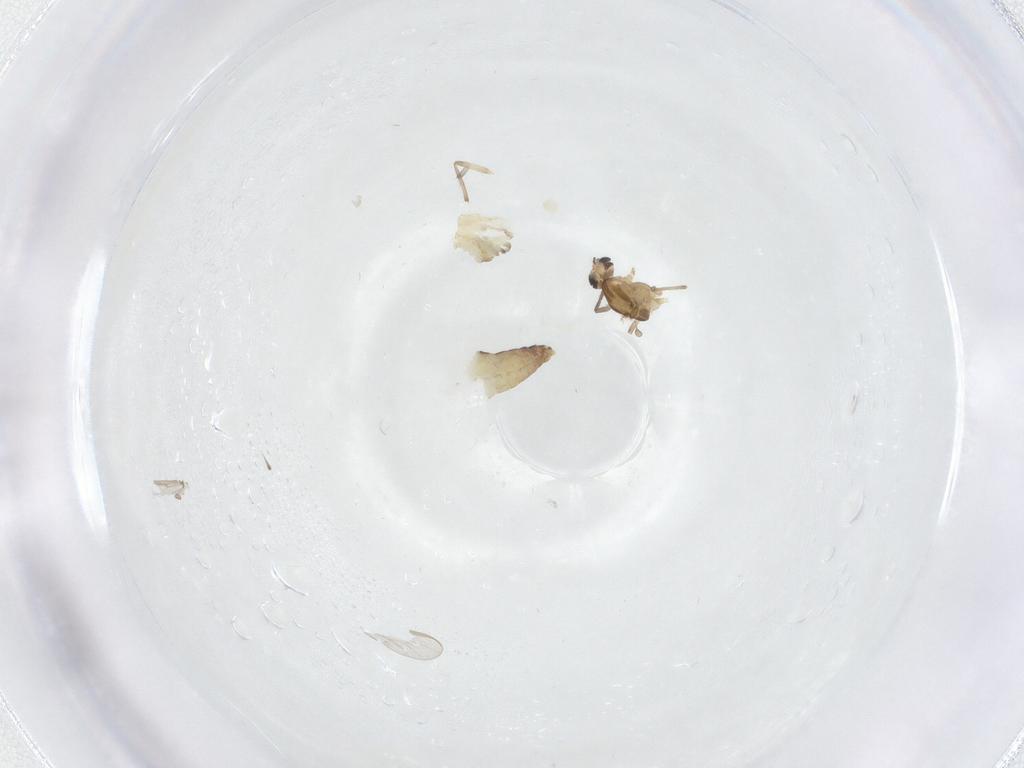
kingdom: Animalia
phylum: Arthropoda
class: Insecta
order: Diptera
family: Chironomidae
